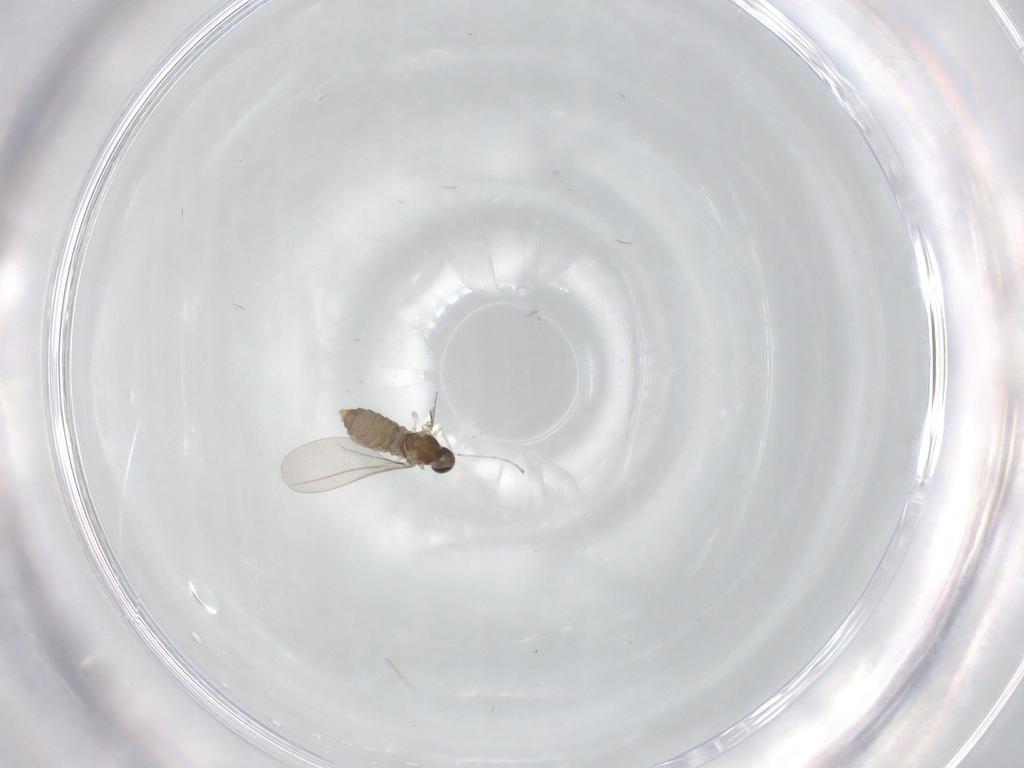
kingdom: Animalia
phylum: Arthropoda
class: Insecta
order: Diptera
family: Cecidomyiidae
